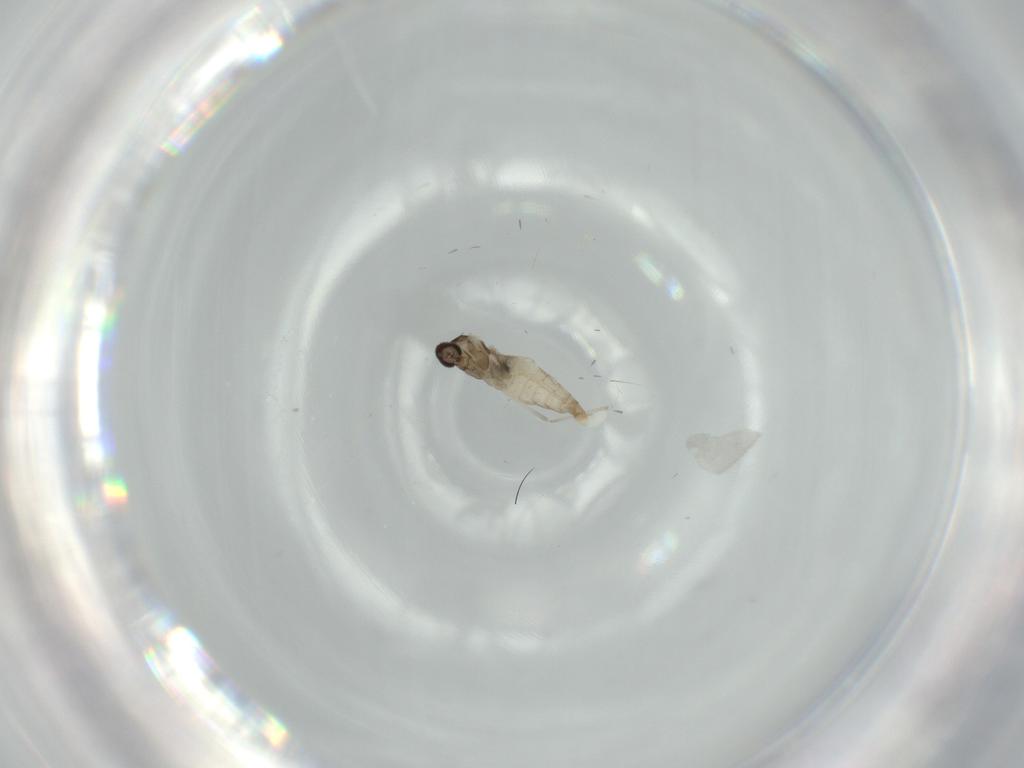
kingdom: Animalia
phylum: Arthropoda
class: Insecta
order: Diptera
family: Cecidomyiidae
